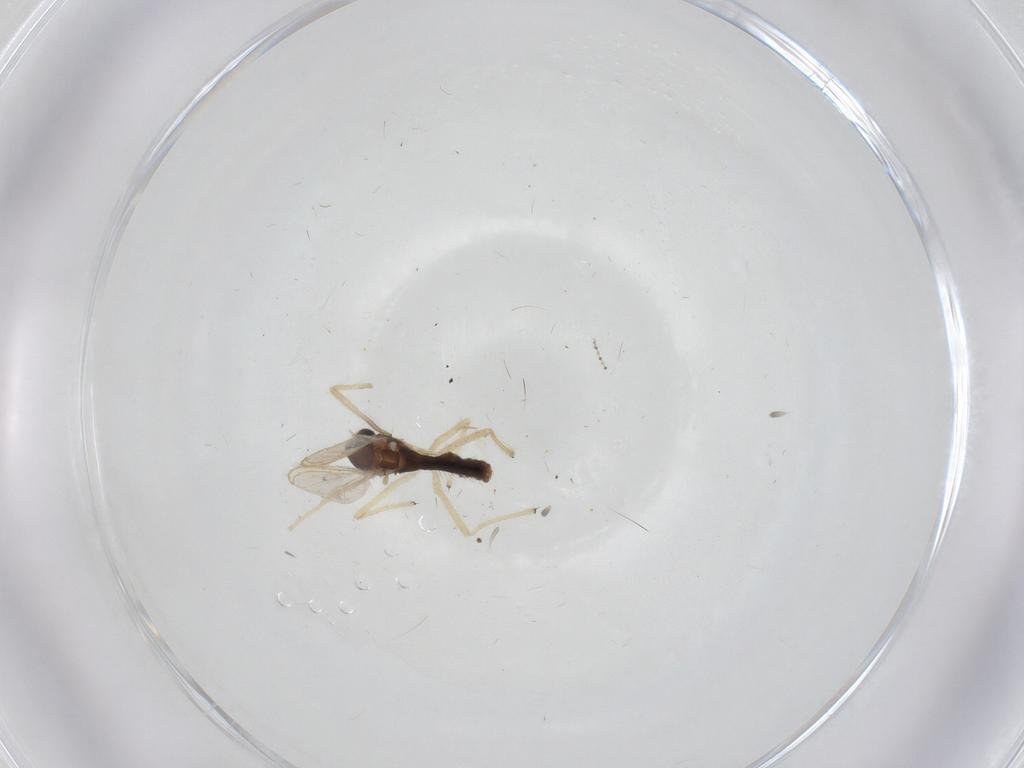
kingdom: Animalia
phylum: Arthropoda
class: Insecta
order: Diptera
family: Chironomidae
